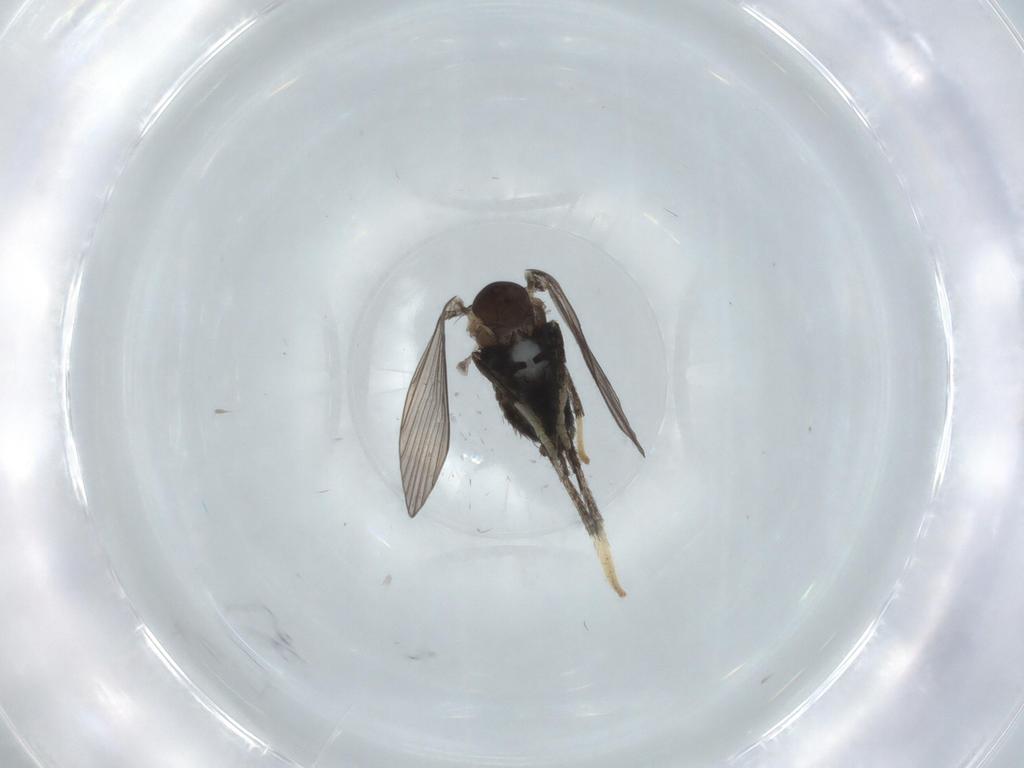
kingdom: Animalia
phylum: Arthropoda
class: Insecta
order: Diptera
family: Psychodidae
